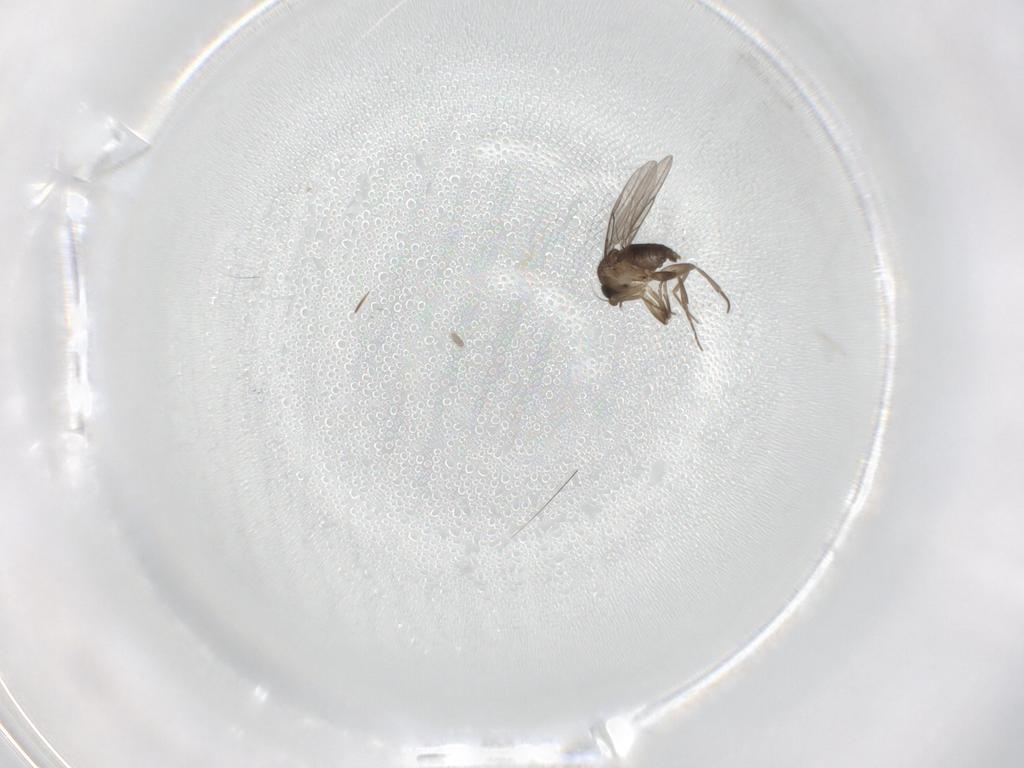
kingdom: Animalia
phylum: Arthropoda
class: Insecta
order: Diptera
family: Phoridae
